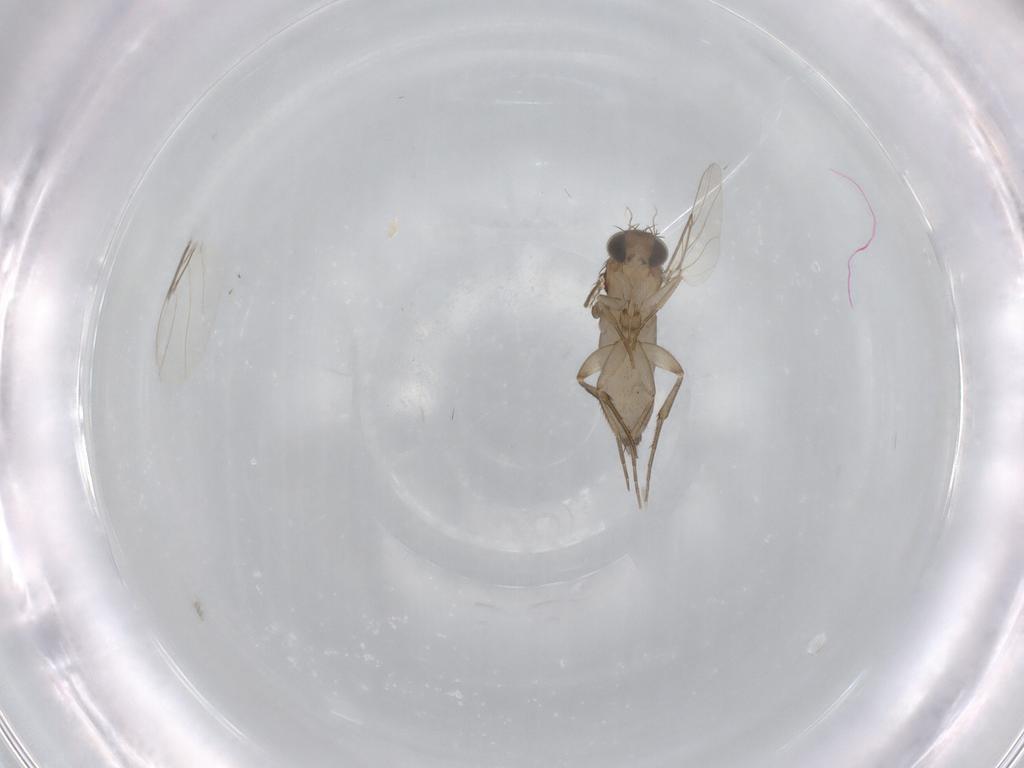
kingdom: Animalia
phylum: Arthropoda
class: Insecta
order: Diptera
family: Phoridae
